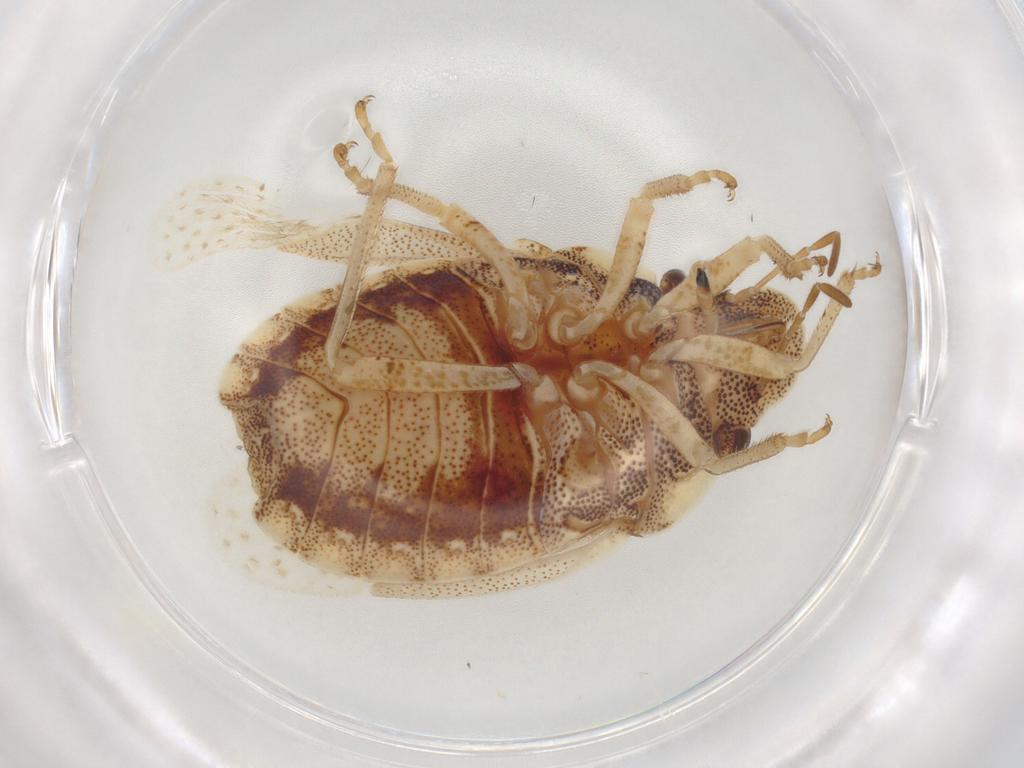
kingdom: Animalia
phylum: Arthropoda
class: Insecta
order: Hemiptera
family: Pentatomidae
